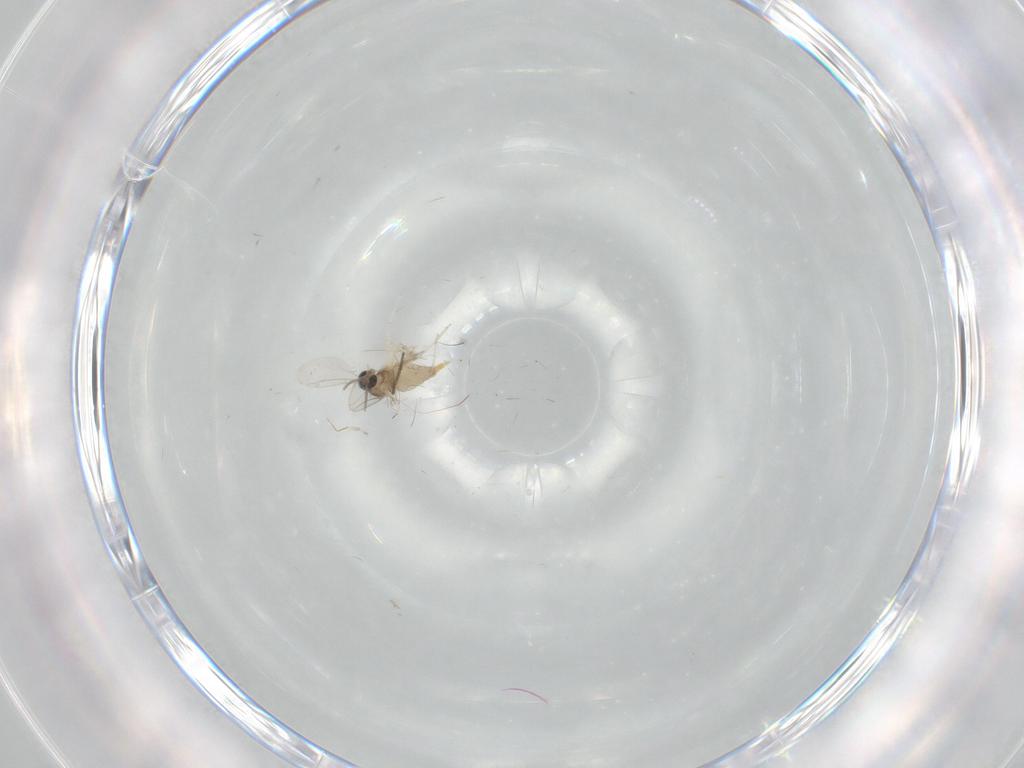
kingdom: Animalia
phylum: Arthropoda
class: Insecta
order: Diptera
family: Cecidomyiidae
